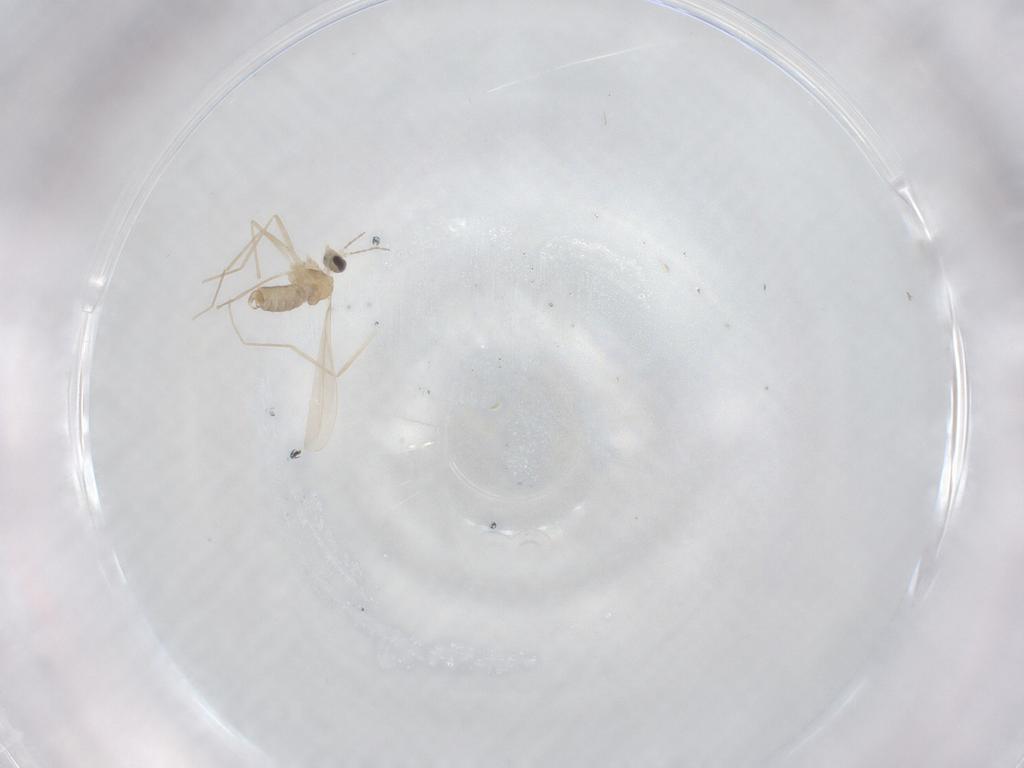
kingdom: Animalia
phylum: Arthropoda
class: Insecta
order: Diptera
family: Cecidomyiidae
